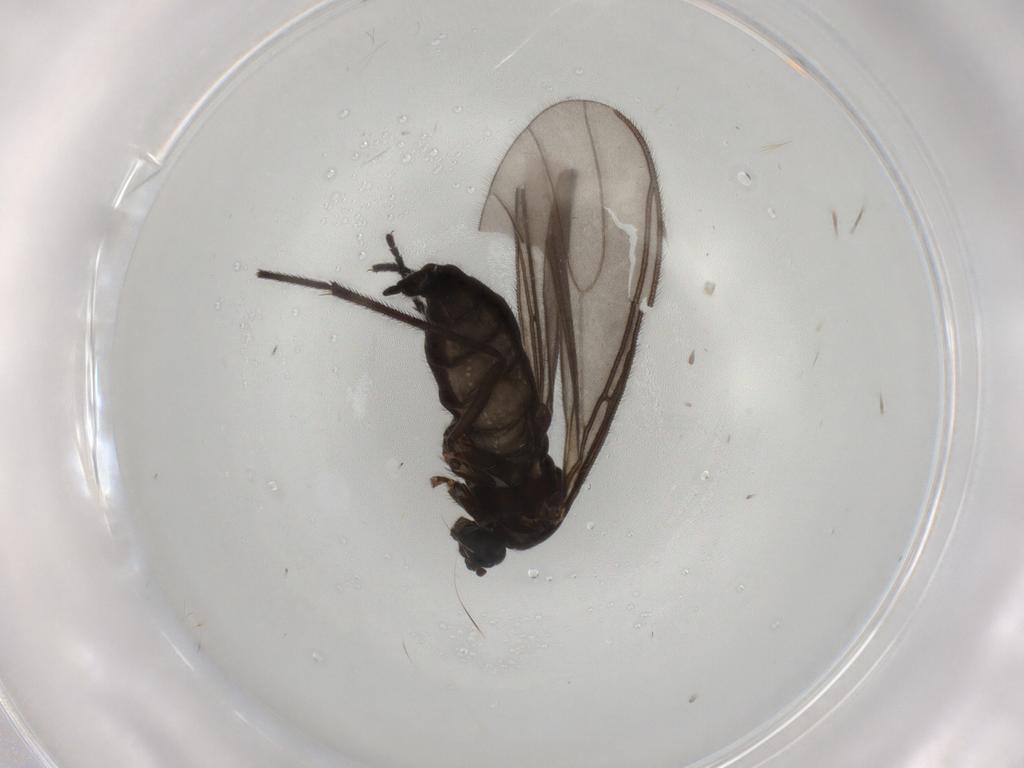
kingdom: Animalia
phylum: Arthropoda
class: Insecta
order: Diptera
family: Sciaridae
